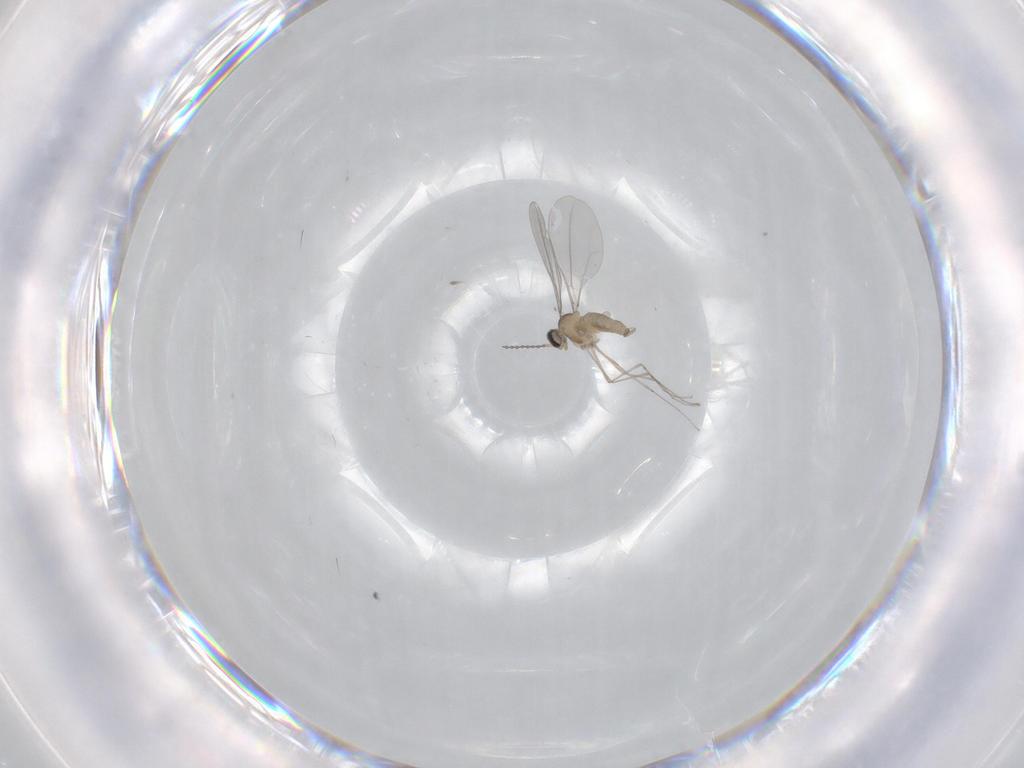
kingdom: Animalia
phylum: Arthropoda
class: Insecta
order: Diptera
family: Cecidomyiidae
